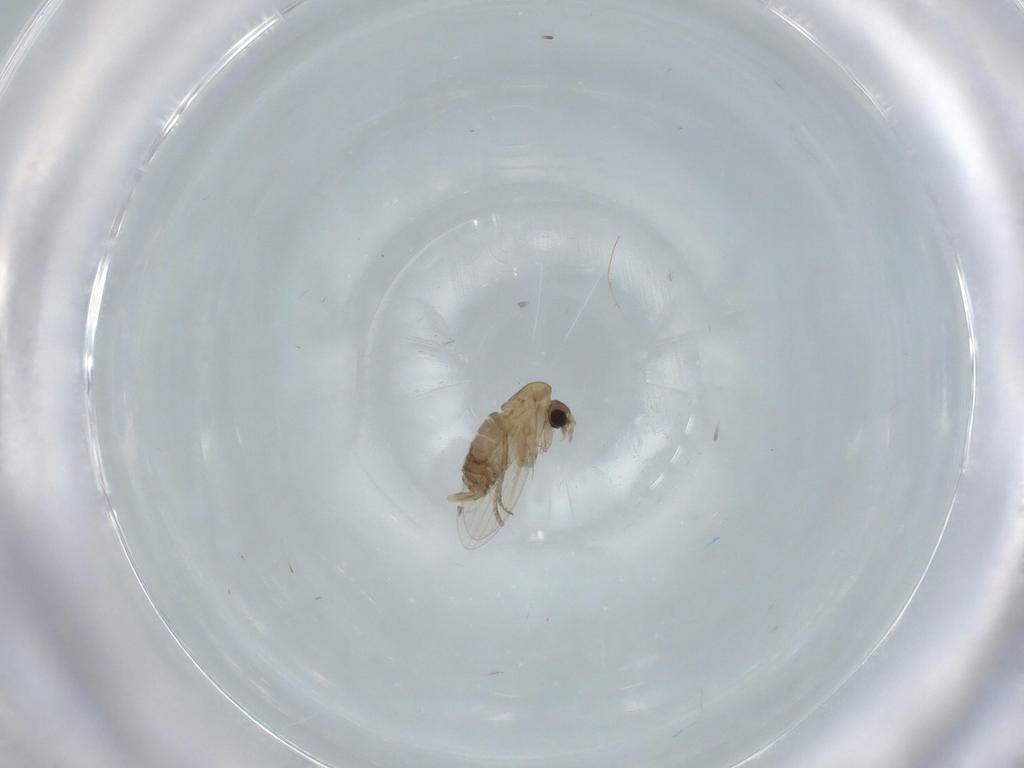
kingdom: Animalia
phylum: Arthropoda
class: Insecta
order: Diptera
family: Psychodidae
